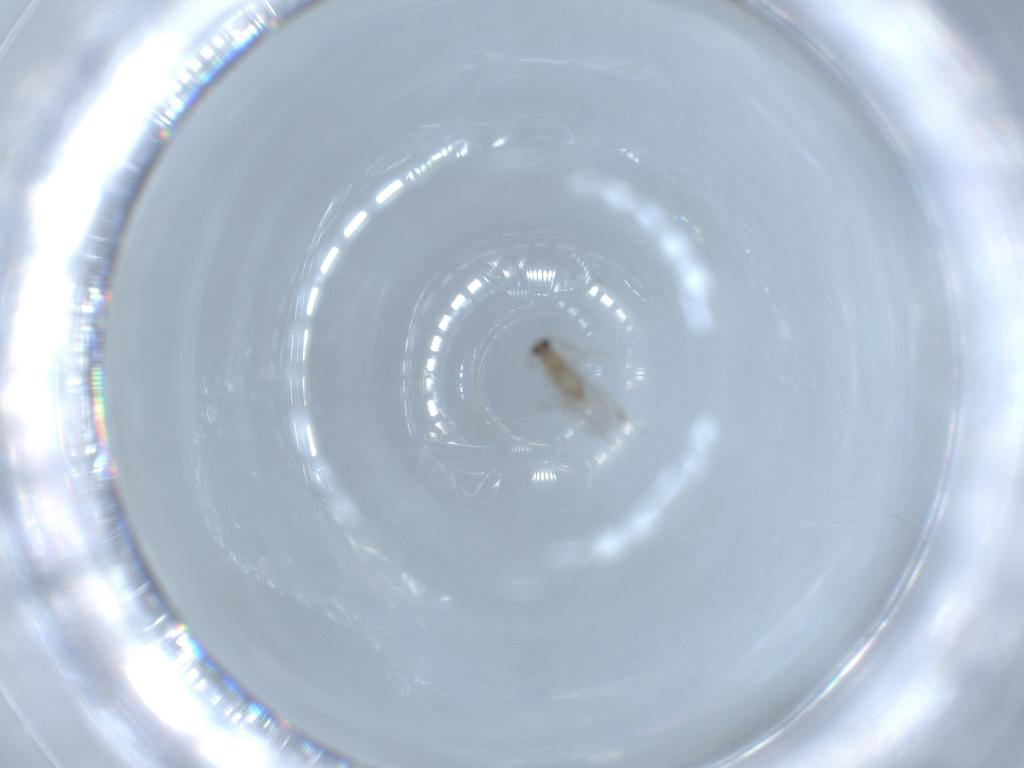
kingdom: Animalia
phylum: Arthropoda
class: Insecta
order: Diptera
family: Cecidomyiidae
